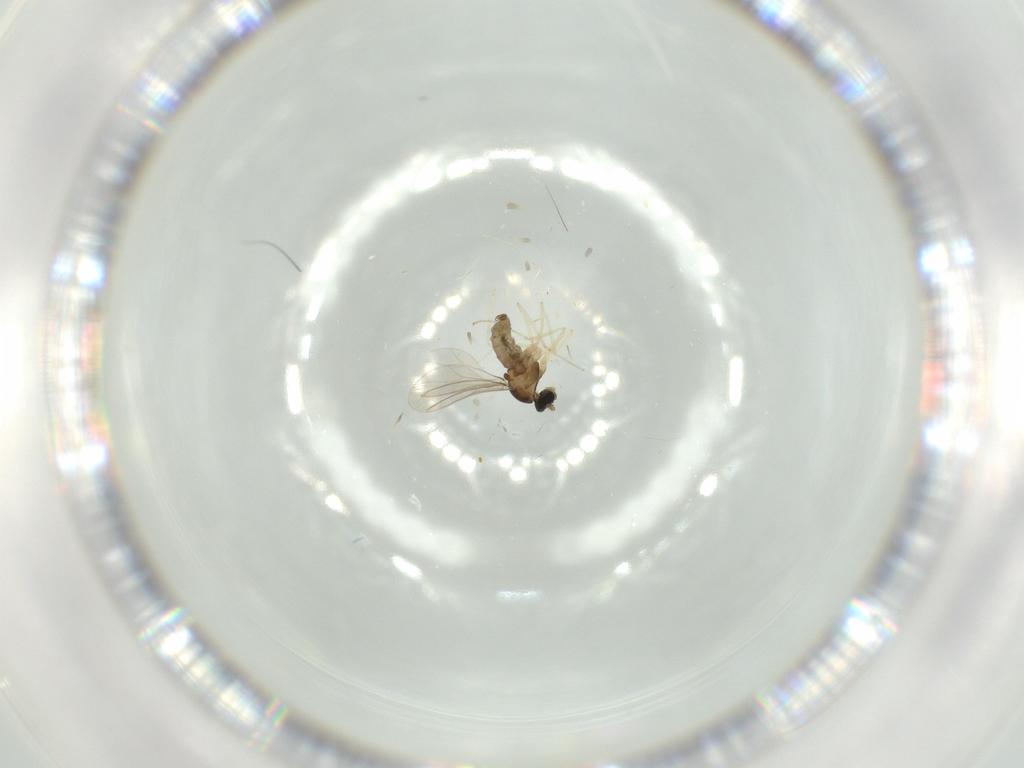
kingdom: Animalia
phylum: Arthropoda
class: Insecta
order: Diptera
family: Cecidomyiidae
